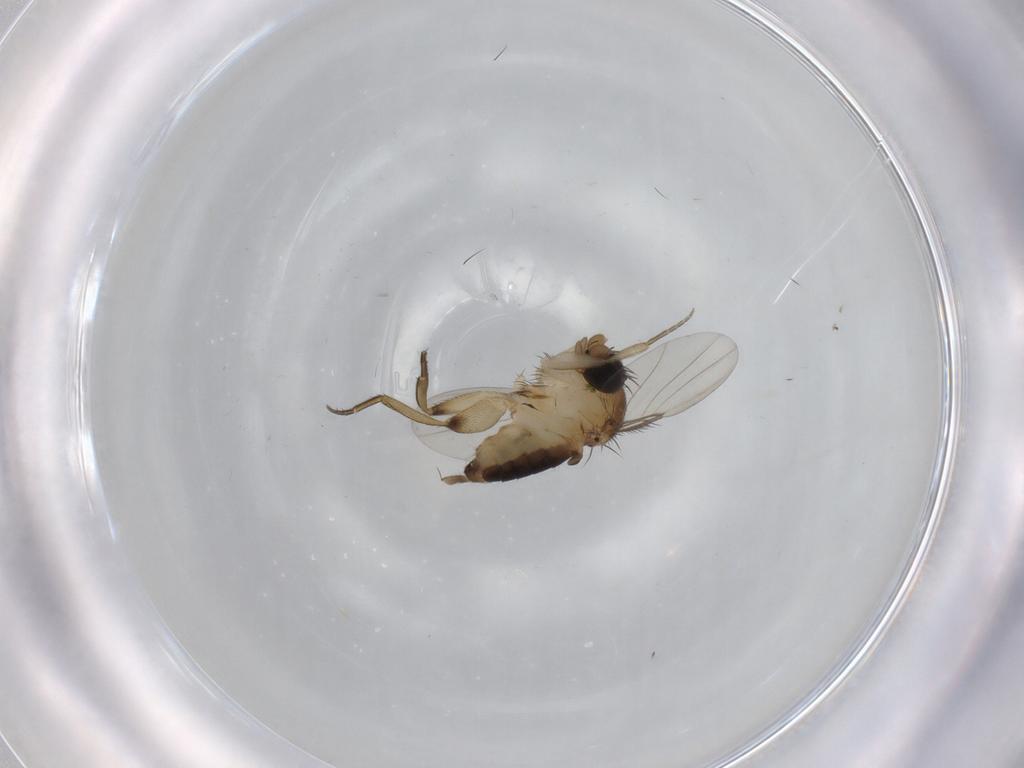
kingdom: Animalia
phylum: Arthropoda
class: Insecta
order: Diptera
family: Phoridae
